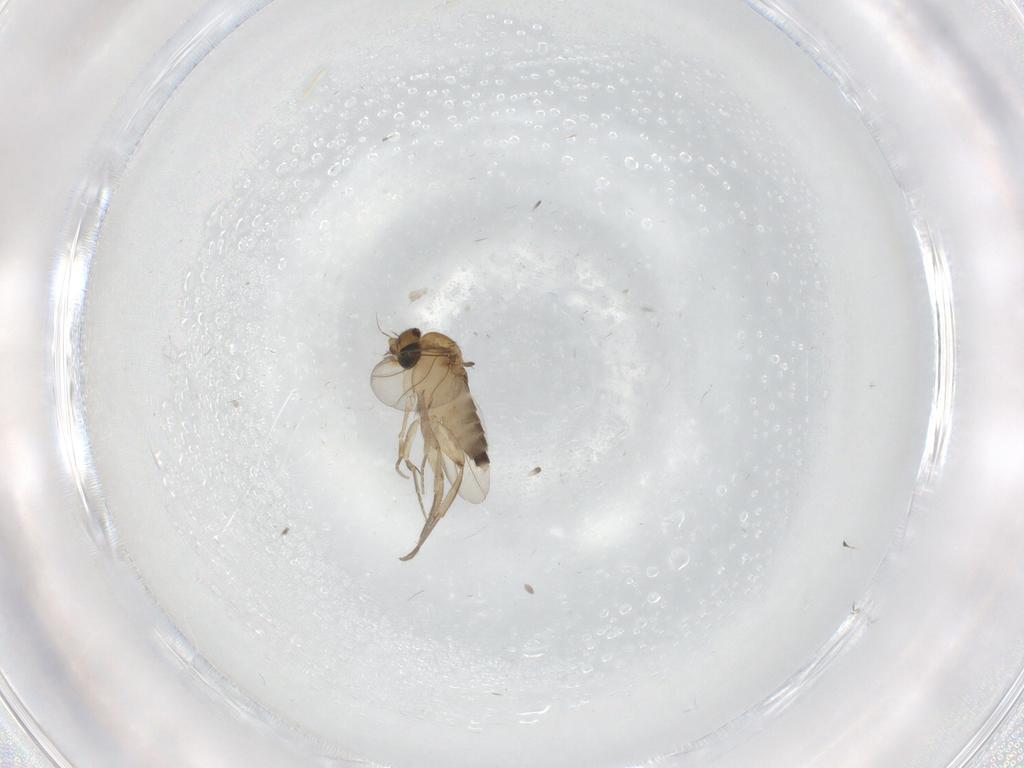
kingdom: Animalia
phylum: Arthropoda
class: Insecta
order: Diptera
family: Phoridae
